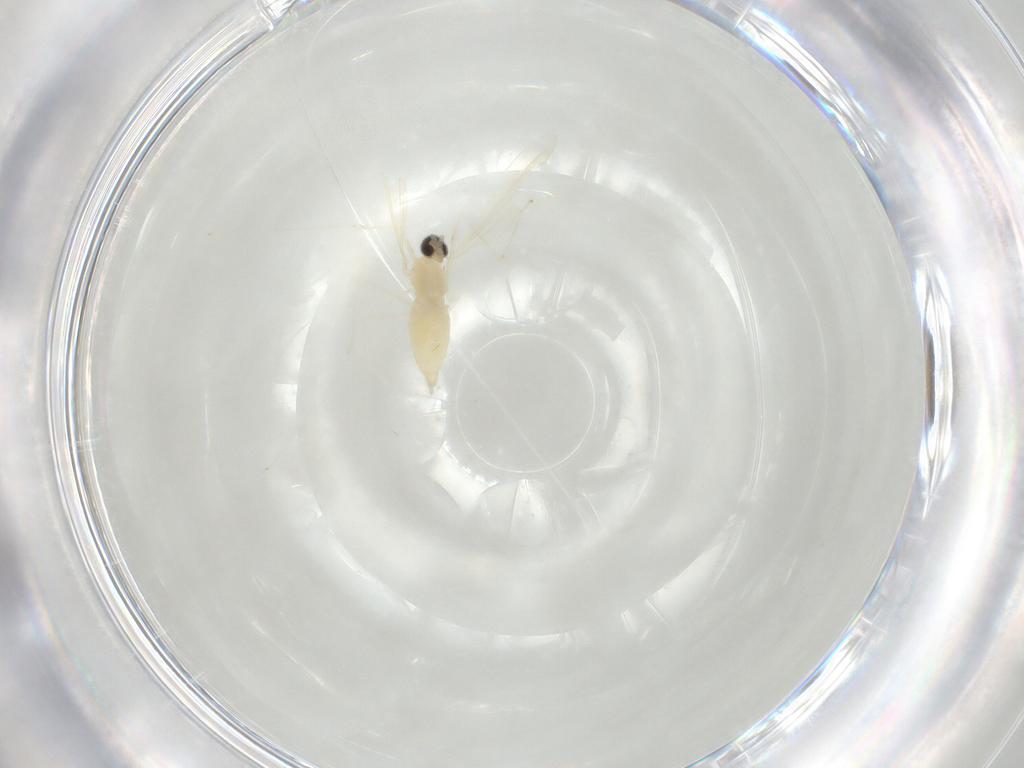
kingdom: Animalia
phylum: Arthropoda
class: Insecta
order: Diptera
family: Cecidomyiidae
